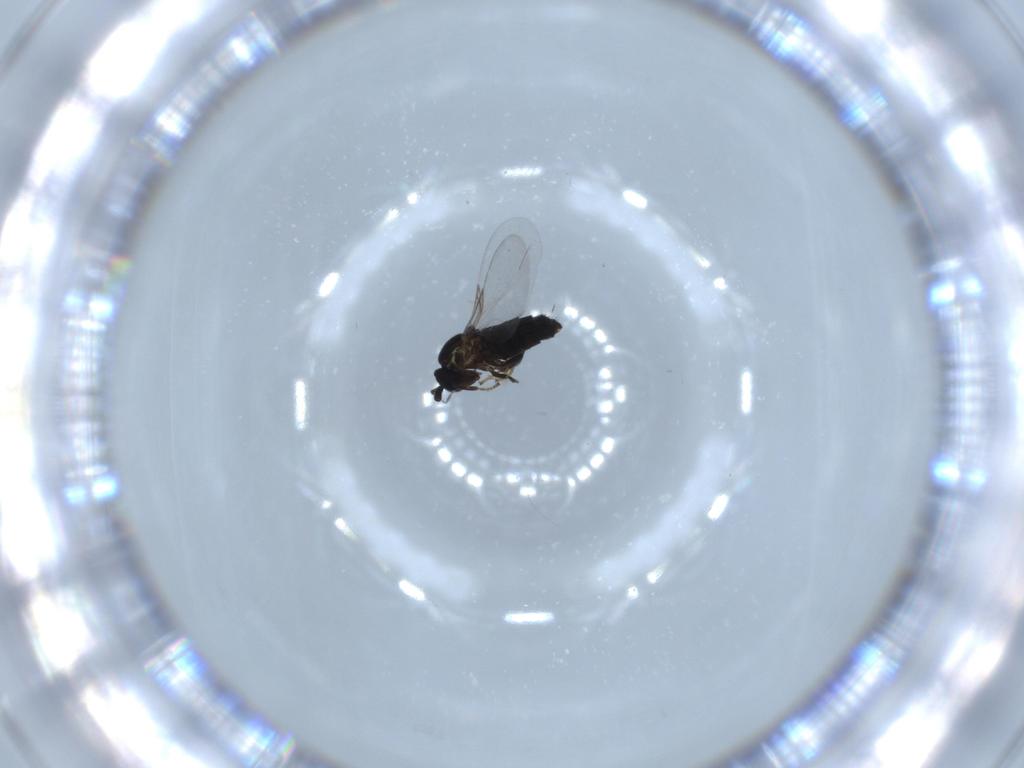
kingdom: Animalia
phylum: Arthropoda
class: Insecta
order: Diptera
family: Scatopsidae
